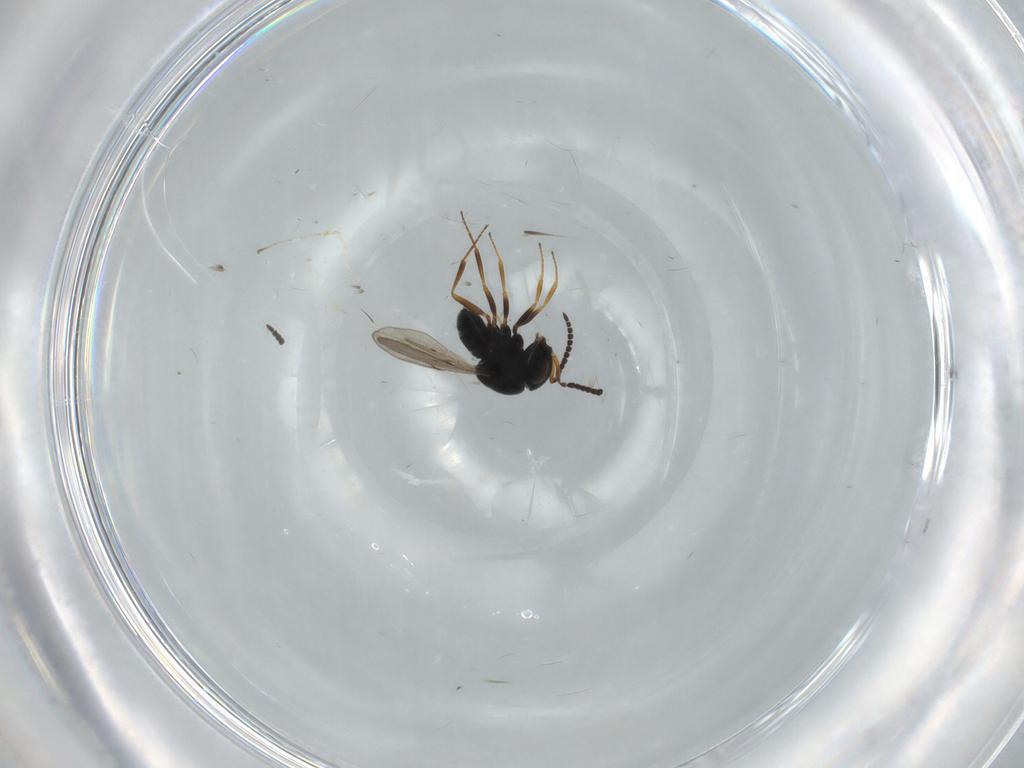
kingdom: Animalia
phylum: Arthropoda
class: Insecta
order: Hymenoptera
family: Scelionidae
